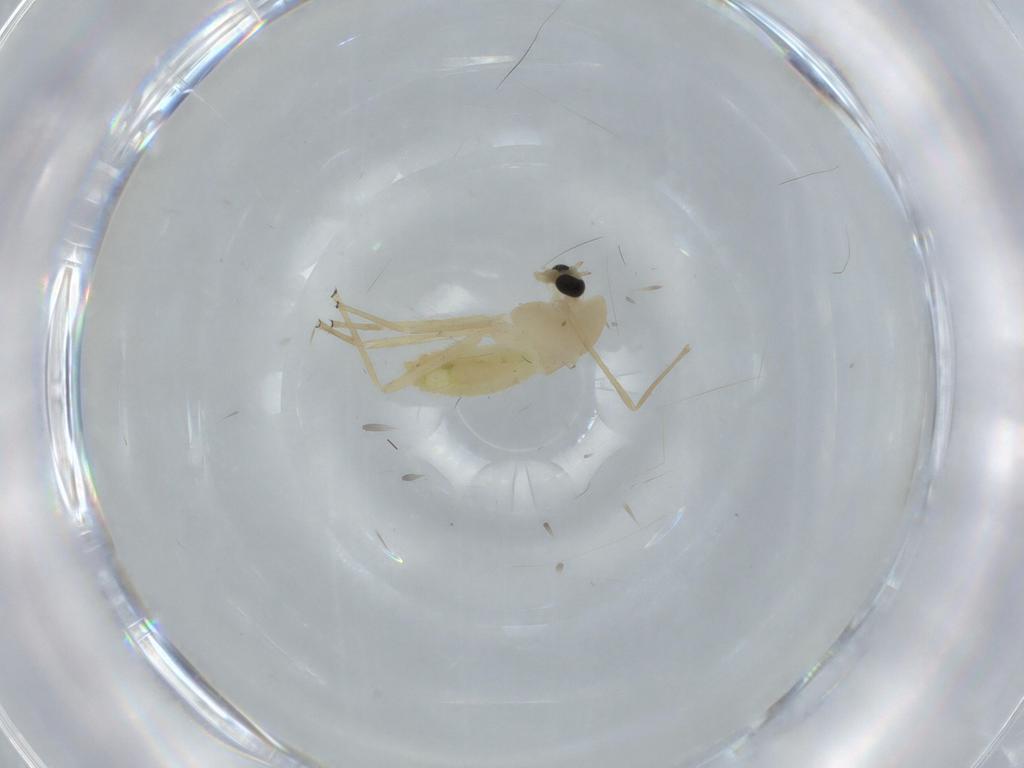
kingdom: Animalia
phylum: Arthropoda
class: Insecta
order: Diptera
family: Chironomidae
